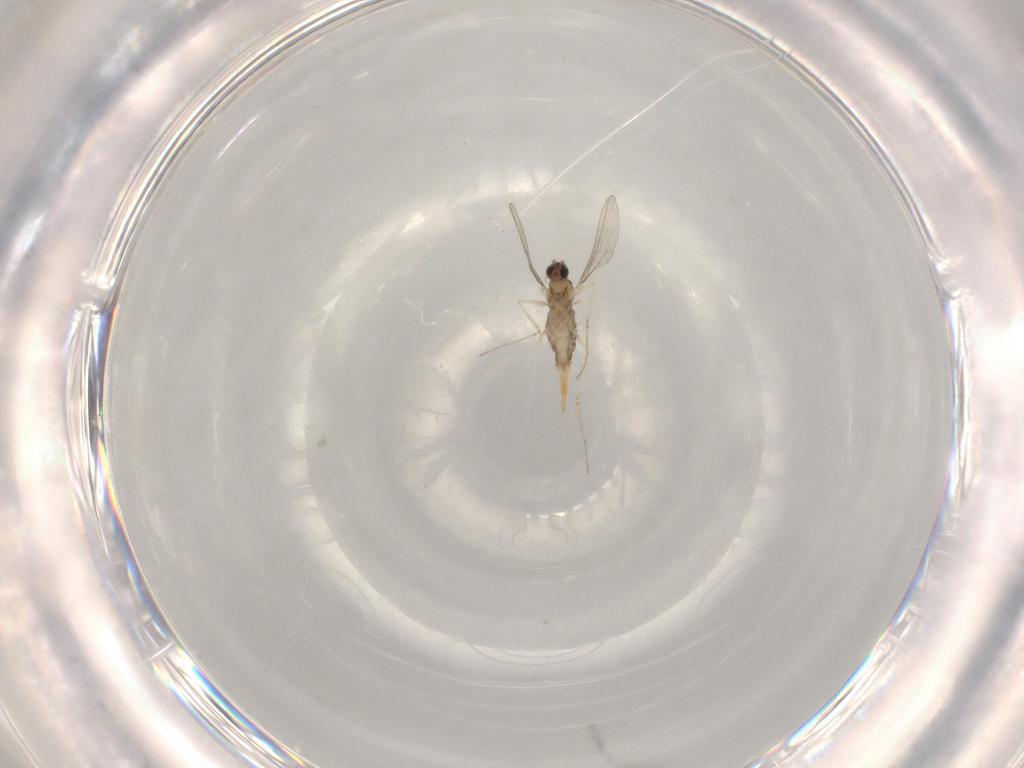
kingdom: Animalia
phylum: Arthropoda
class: Insecta
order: Diptera
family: Cecidomyiidae
